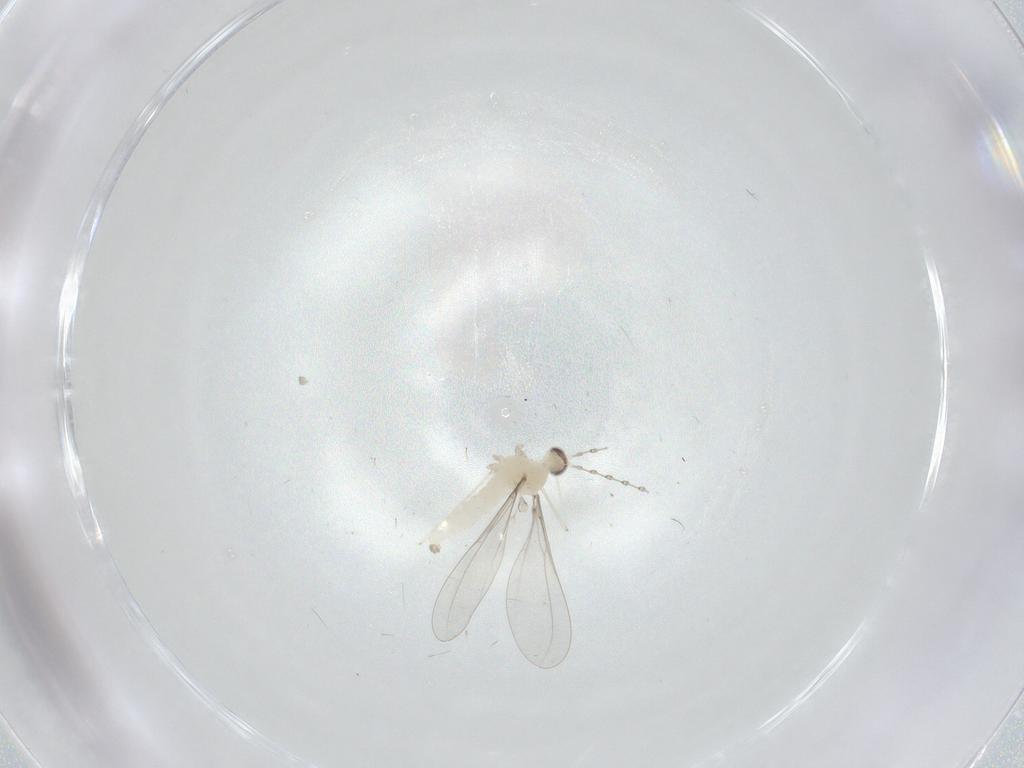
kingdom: Animalia
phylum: Arthropoda
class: Insecta
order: Diptera
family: Cecidomyiidae
